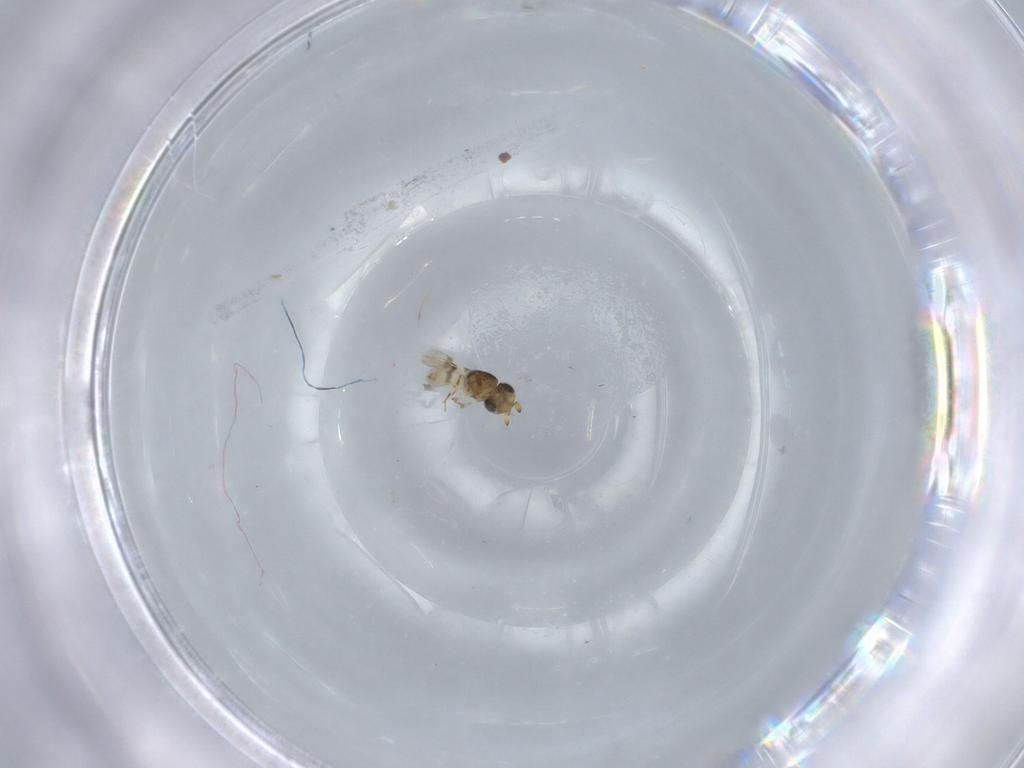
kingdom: Animalia
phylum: Arthropoda
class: Insecta
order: Hymenoptera
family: Scelionidae
